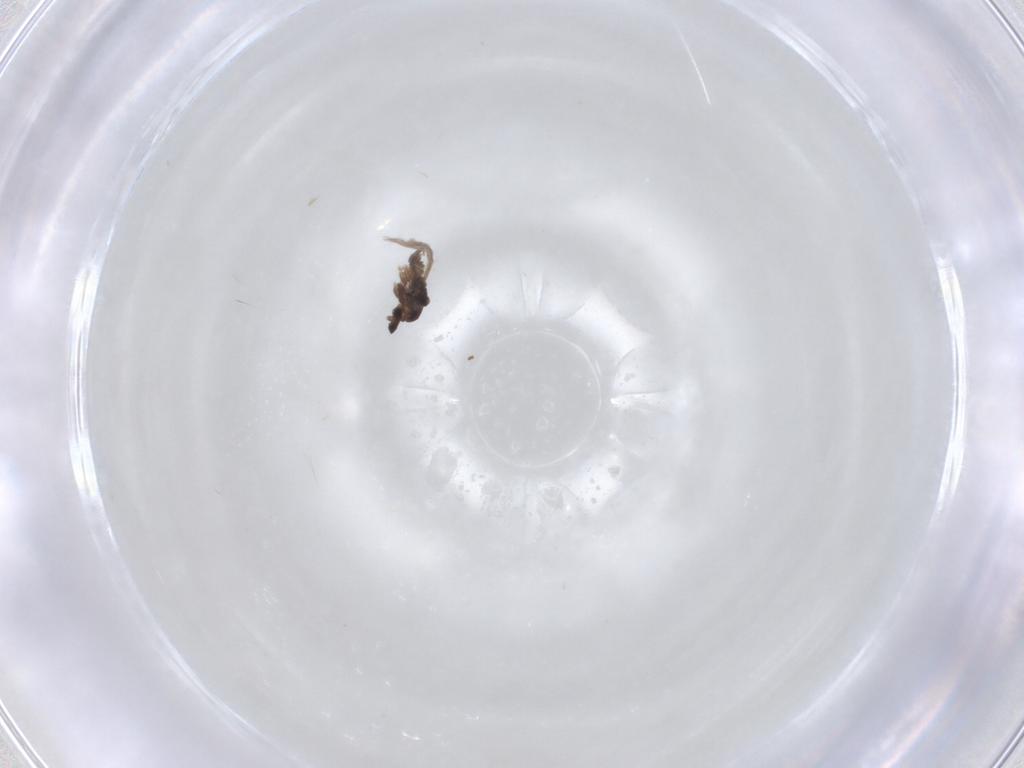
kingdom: Animalia
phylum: Arthropoda
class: Insecta
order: Diptera
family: Cecidomyiidae
